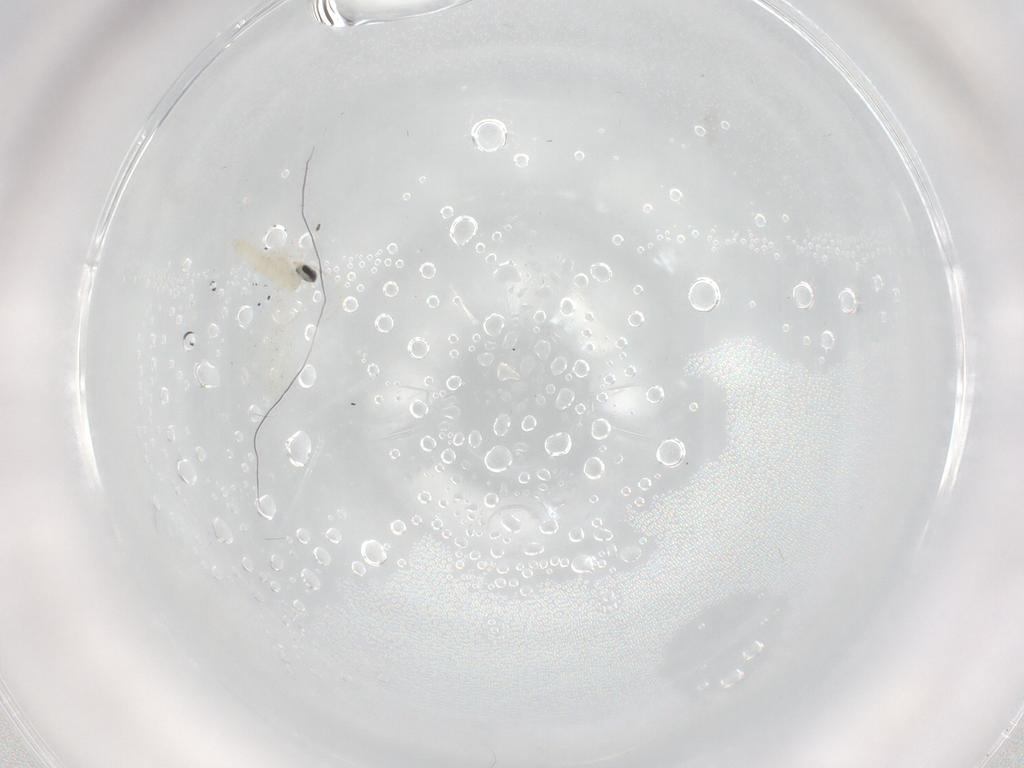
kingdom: Animalia
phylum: Arthropoda
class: Insecta
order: Diptera
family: Cecidomyiidae
